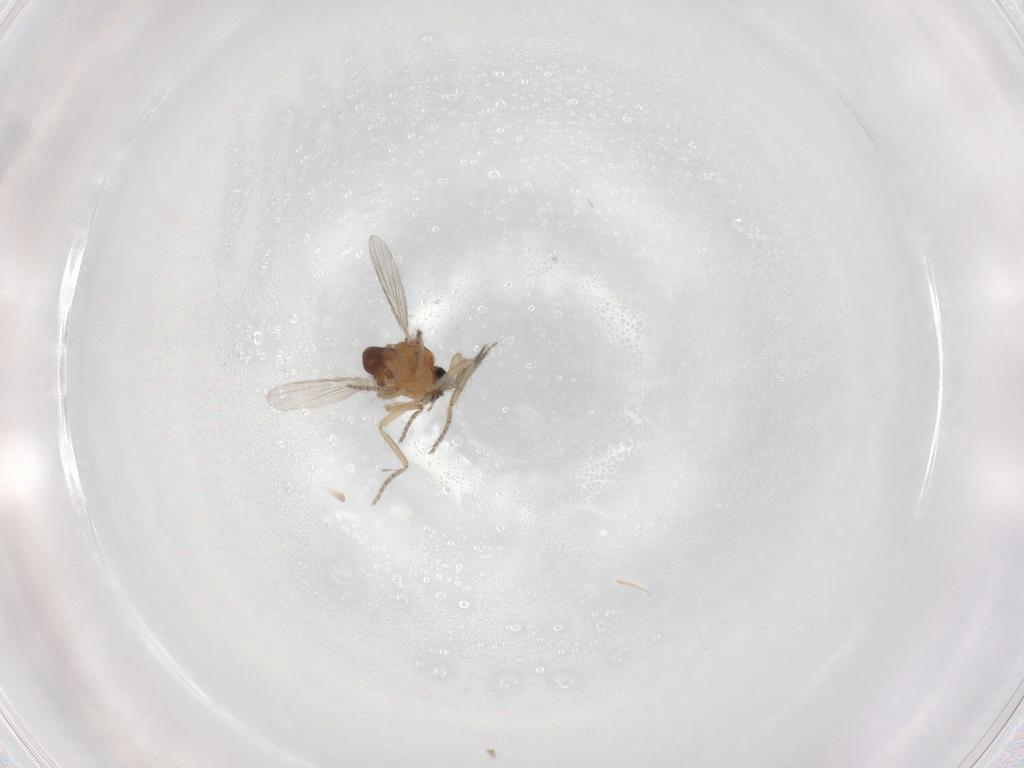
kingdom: Animalia
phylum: Arthropoda
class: Insecta
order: Diptera
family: Ceratopogonidae
